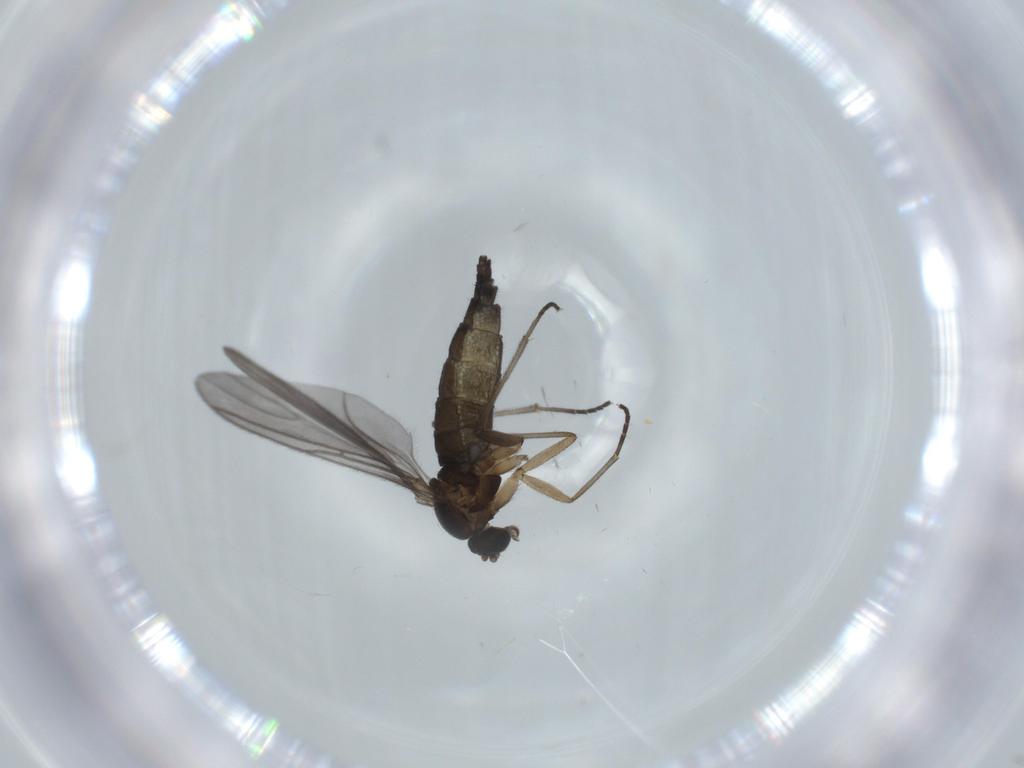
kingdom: Animalia
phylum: Arthropoda
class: Insecta
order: Diptera
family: Sciaridae
